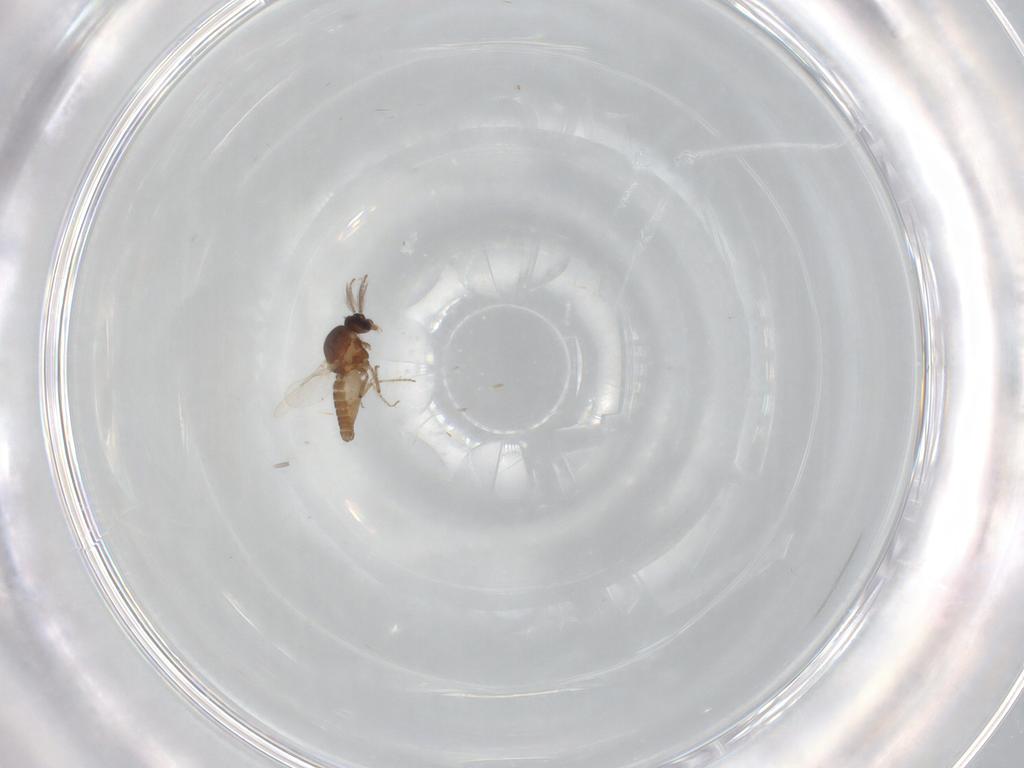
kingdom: Animalia
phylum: Arthropoda
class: Insecta
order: Diptera
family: Ceratopogonidae
